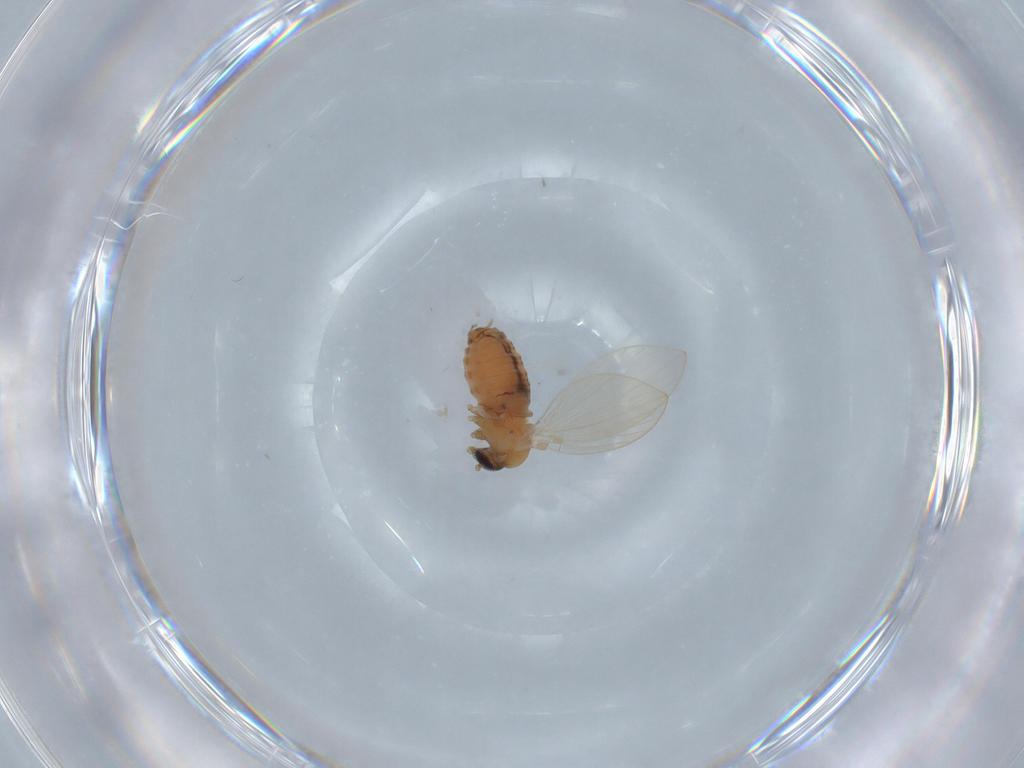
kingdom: Animalia
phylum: Arthropoda
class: Insecta
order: Diptera
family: Psychodidae
